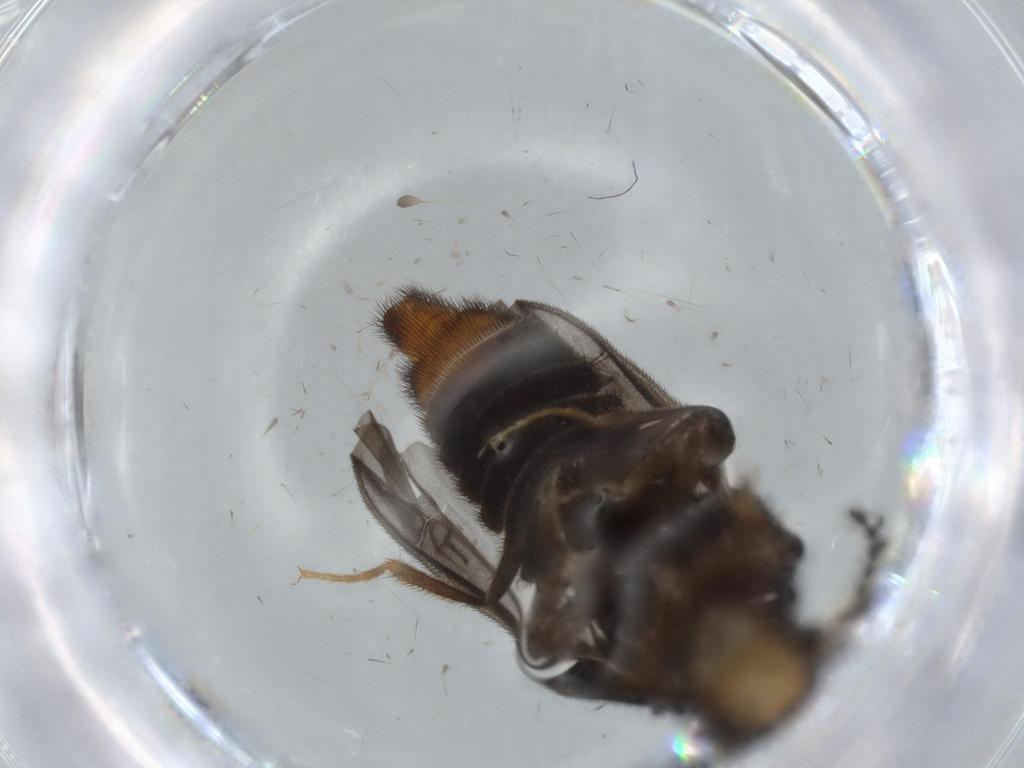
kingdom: Animalia
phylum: Arthropoda
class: Insecta
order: Coleoptera
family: Phengodidae
